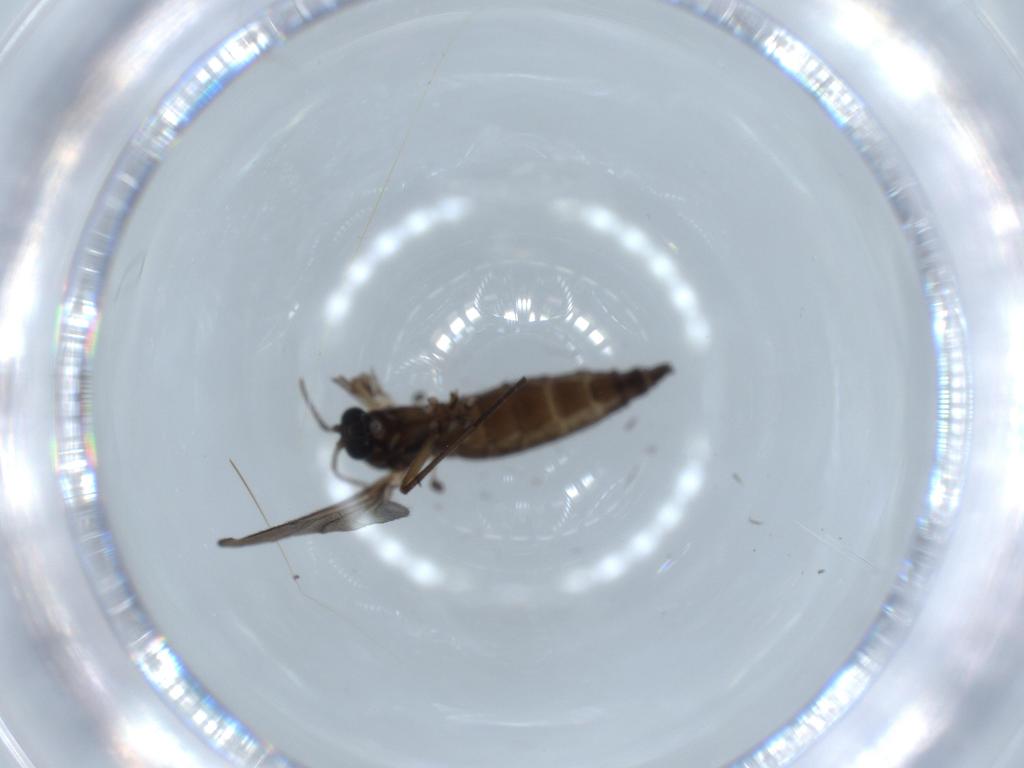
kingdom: Animalia
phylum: Arthropoda
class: Insecta
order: Diptera
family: Sciaridae
